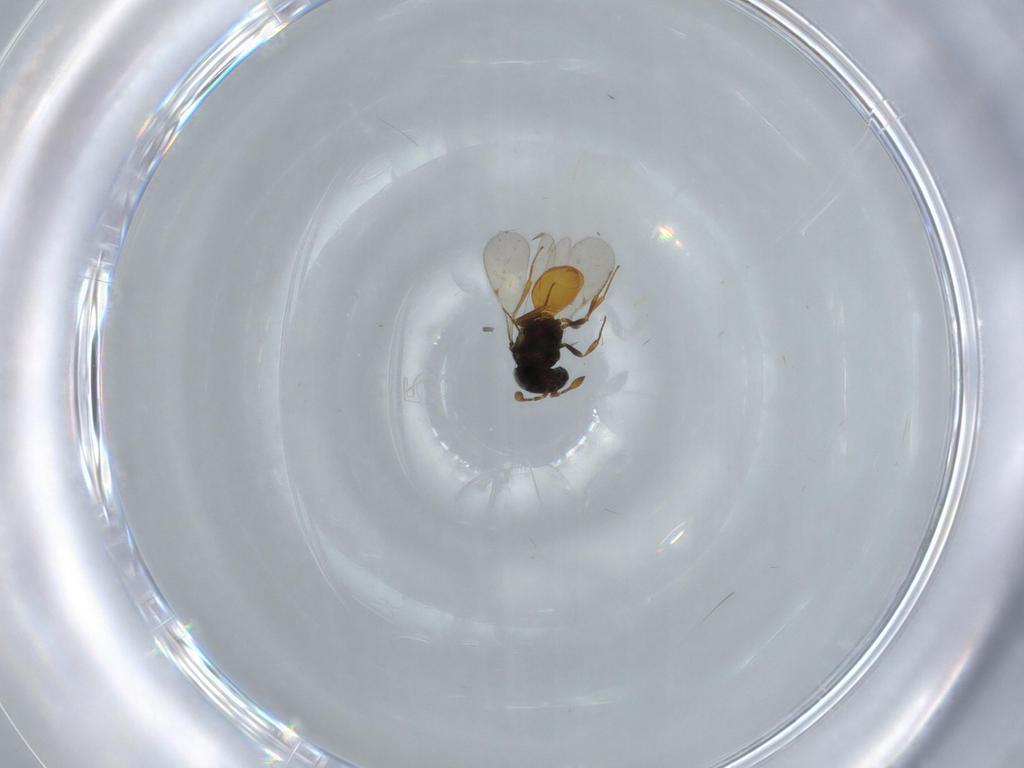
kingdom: Animalia
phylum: Arthropoda
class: Insecta
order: Hymenoptera
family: Scelionidae
